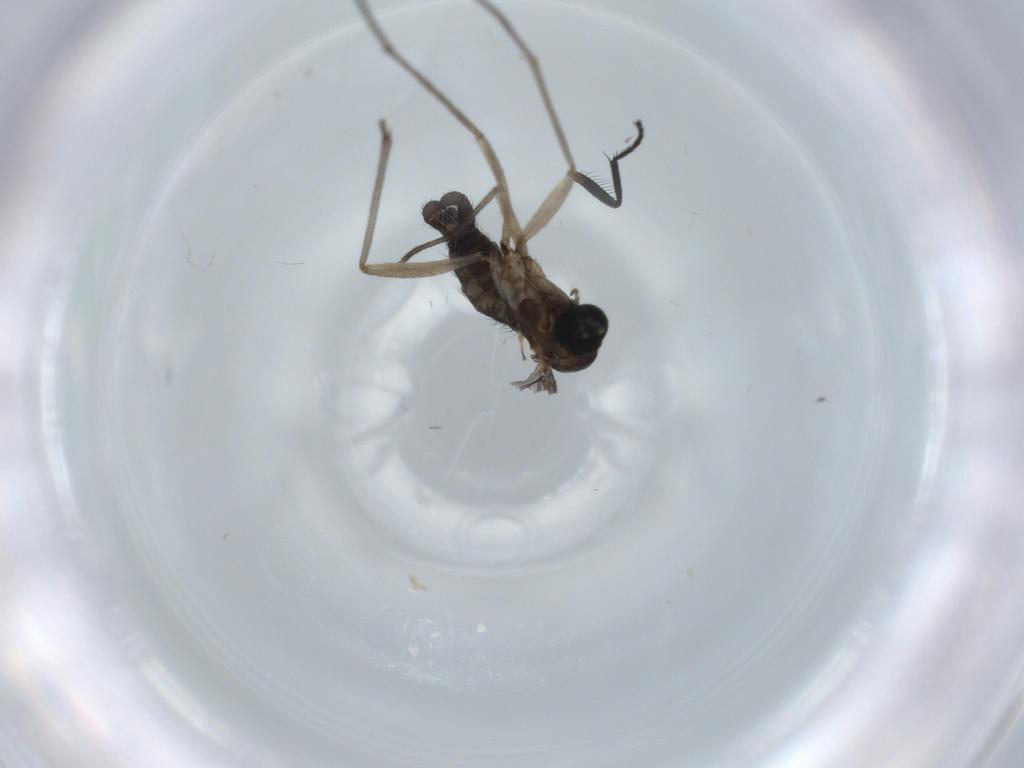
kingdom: Animalia
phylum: Arthropoda
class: Insecta
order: Diptera
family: Sciaridae
